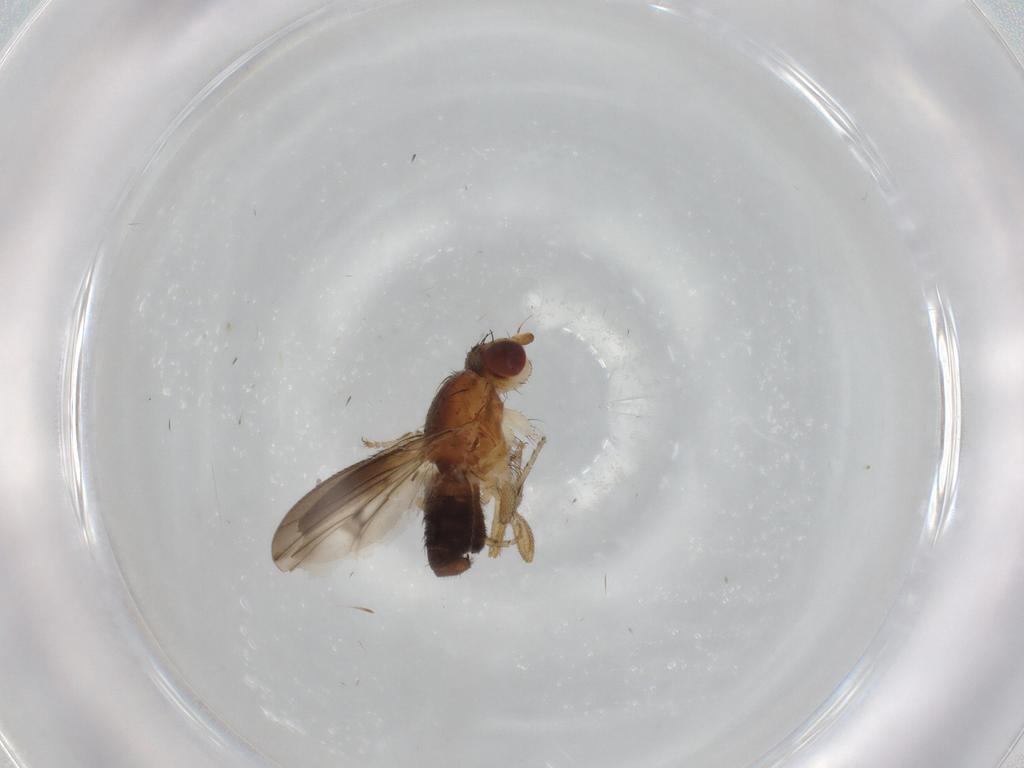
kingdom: Animalia
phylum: Arthropoda
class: Insecta
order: Diptera
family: Heleomyzidae
